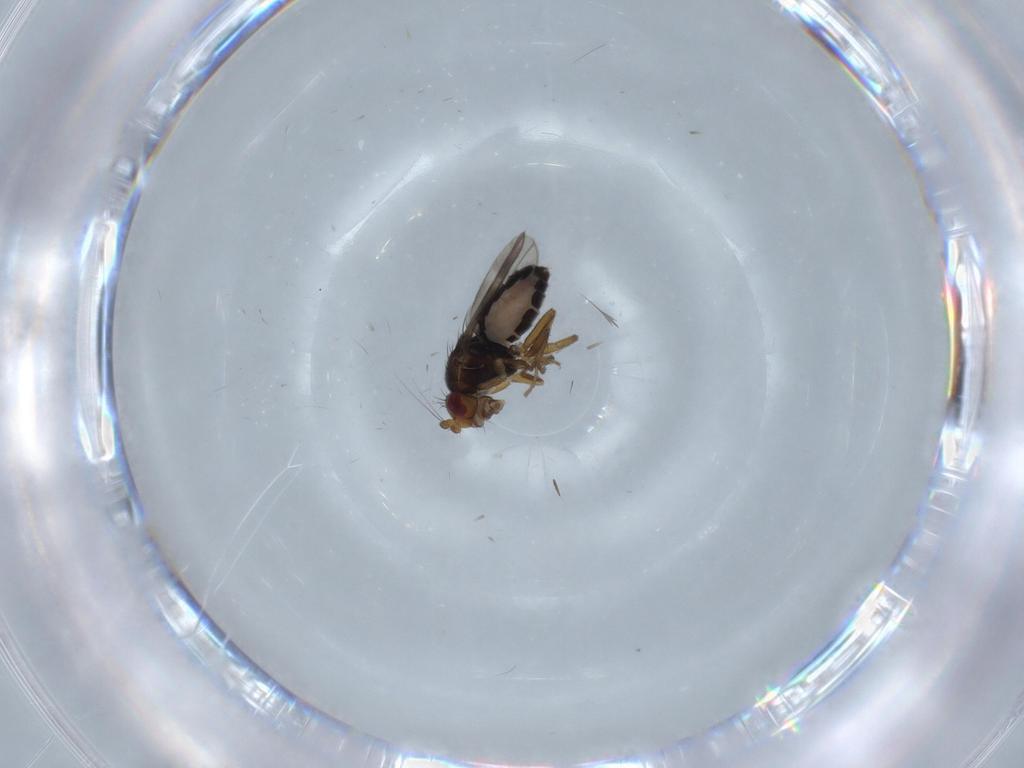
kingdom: Animalia
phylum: Arthropoda
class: Insecta
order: Diptera
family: Sphaeroceridae
